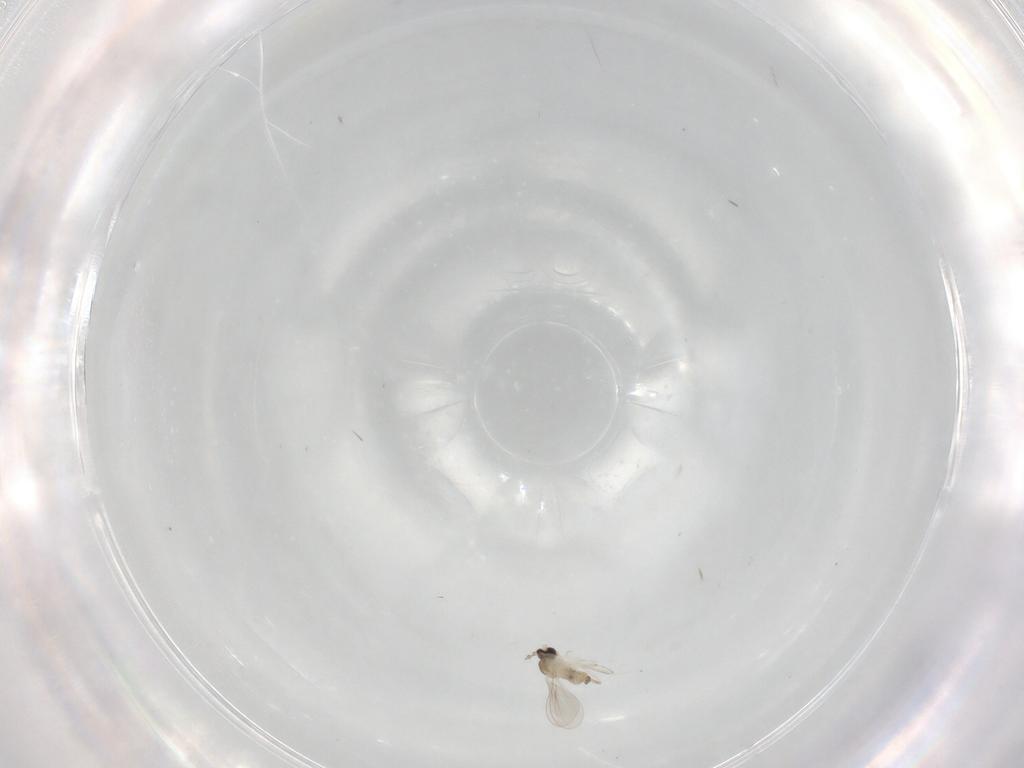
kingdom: Animalia
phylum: Arthropoda
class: Insecta
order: Diptera
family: Cecidomyiidae
